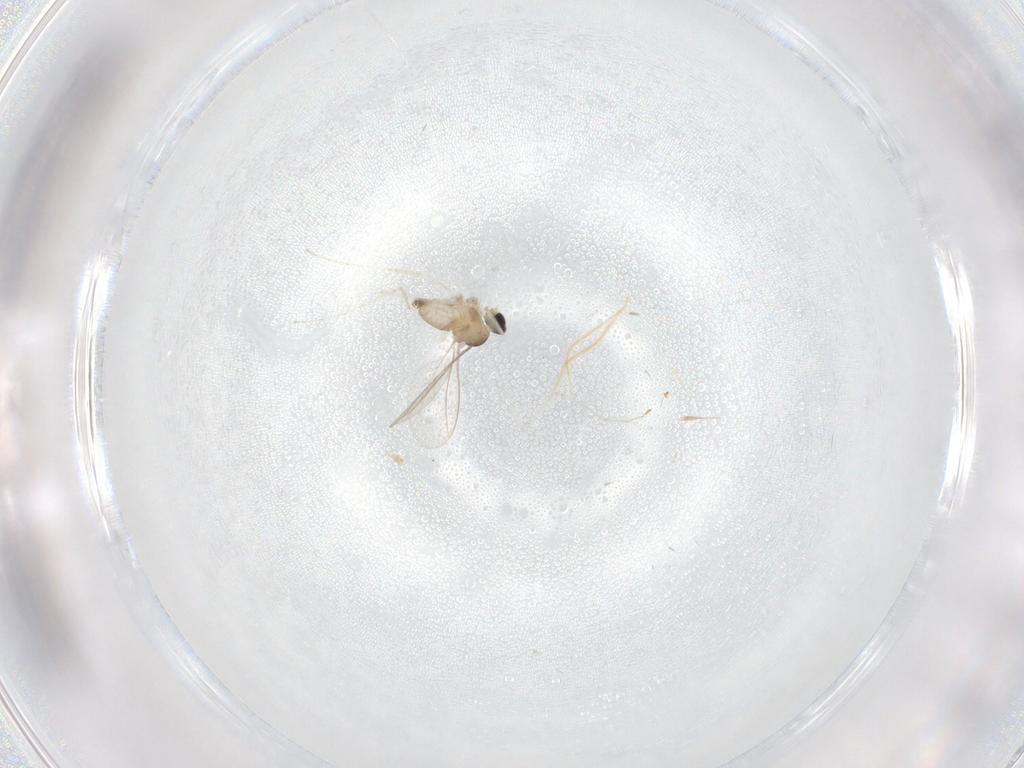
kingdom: Animalia
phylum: Arthropoda
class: Insecta
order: Diptera
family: Cecidomyiidae
